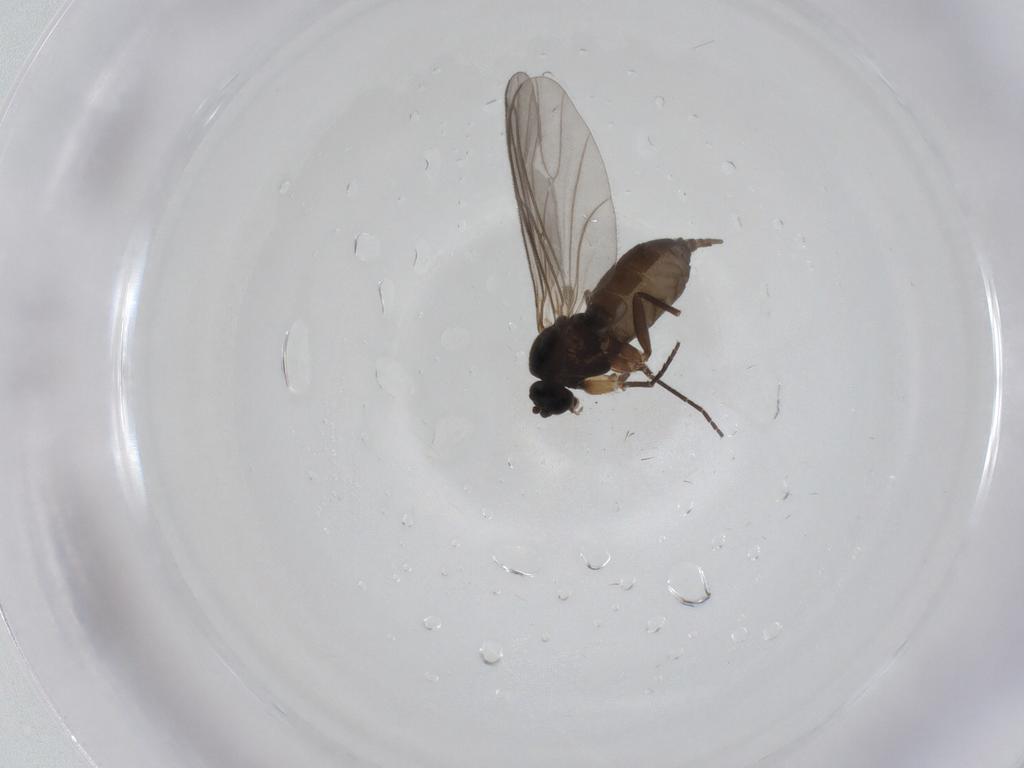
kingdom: Animalia
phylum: Arthropoda
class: Insecta
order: Diptera
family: Sciaridae
